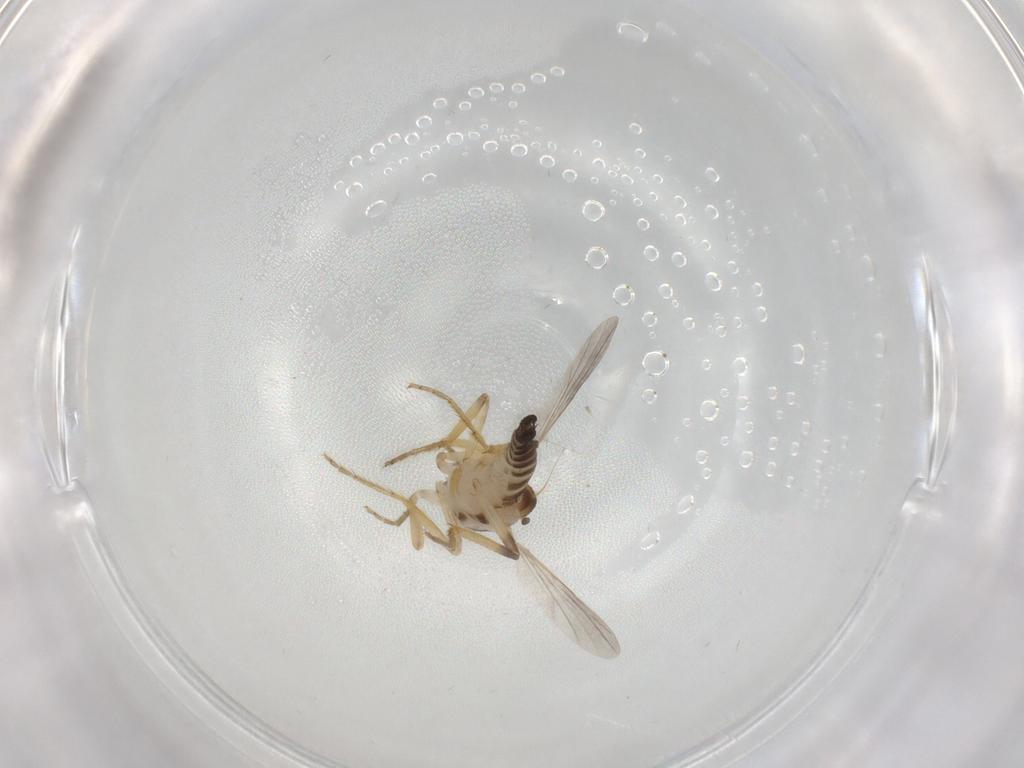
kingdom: Animalia
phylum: Arthropoda
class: Insecta
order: Diptera
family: Ceratopogonidae
